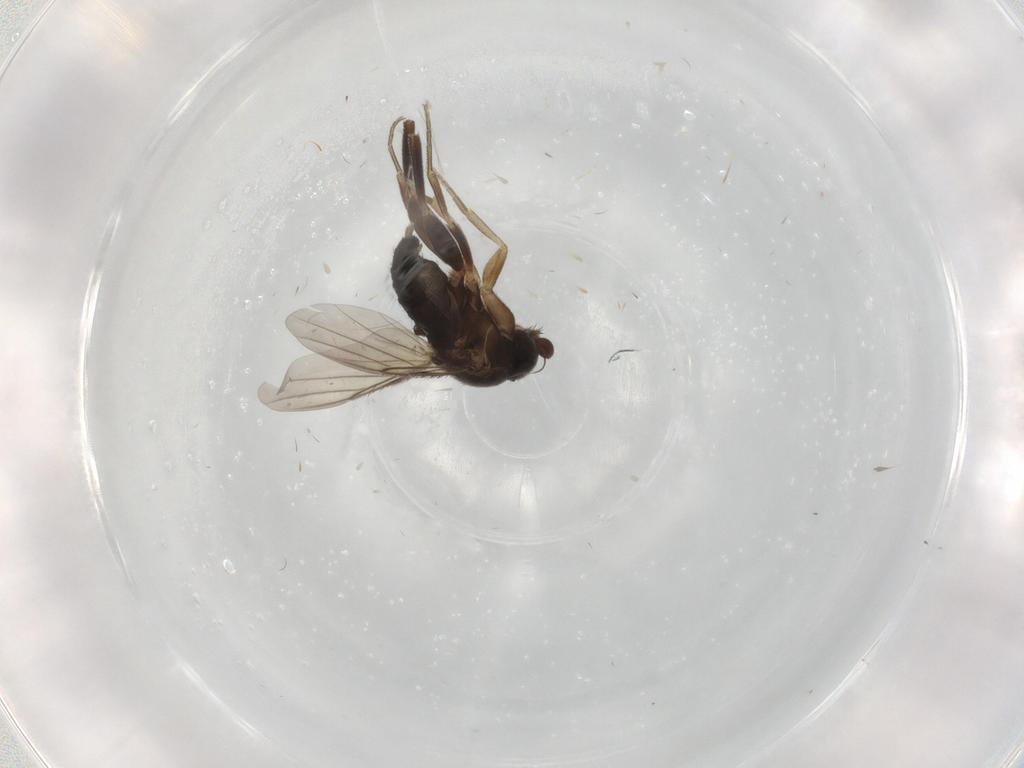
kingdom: Animalia
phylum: Arthropoda
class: Insecta
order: Diptera
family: Phoridae
